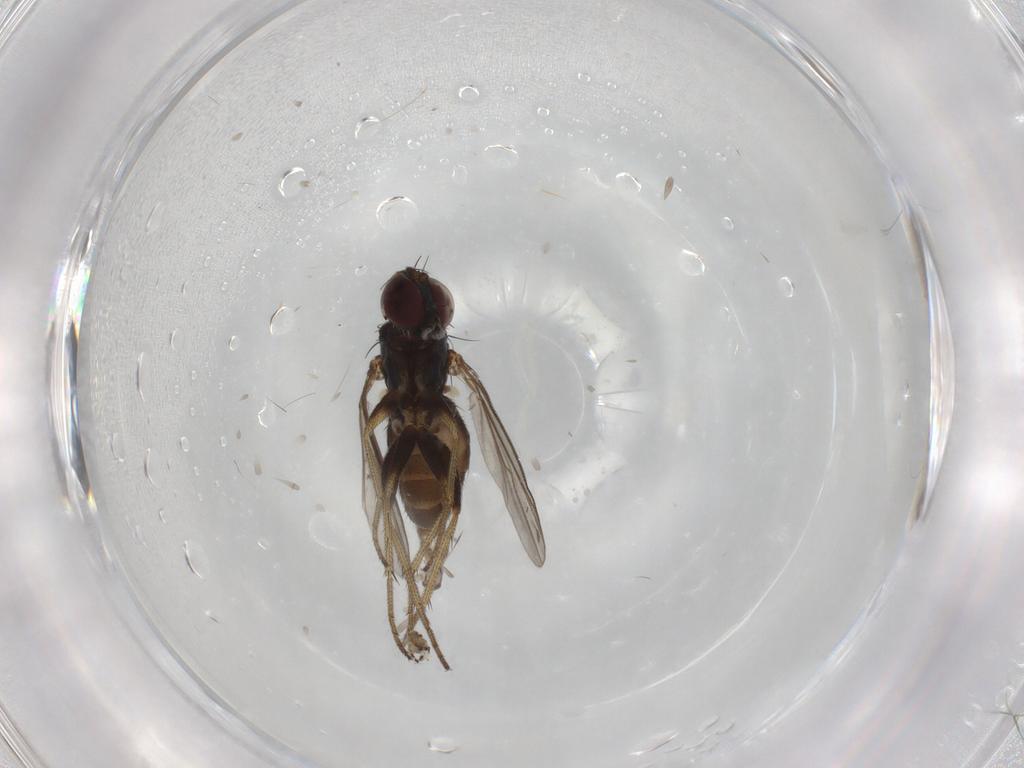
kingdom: Animalia
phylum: Arthropoda
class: Insecta
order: Diptera
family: Dolichopodidae
